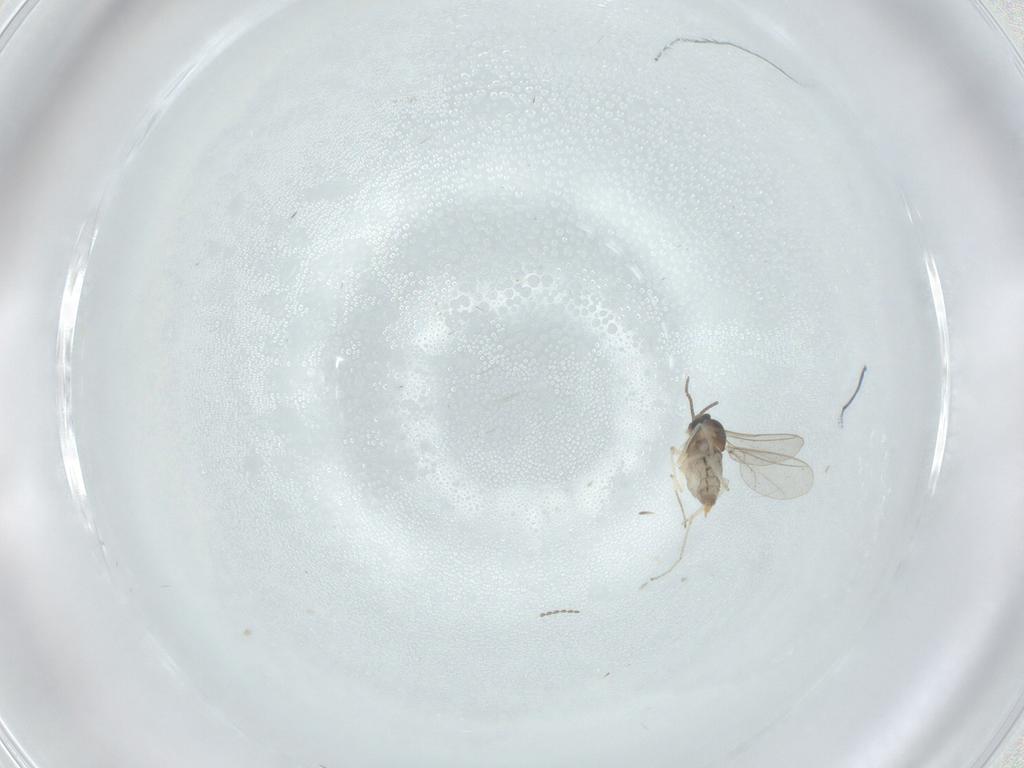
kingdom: Animalia
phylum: Arthropoda
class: Insecta
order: Diptera
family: Cecidomyiidae
